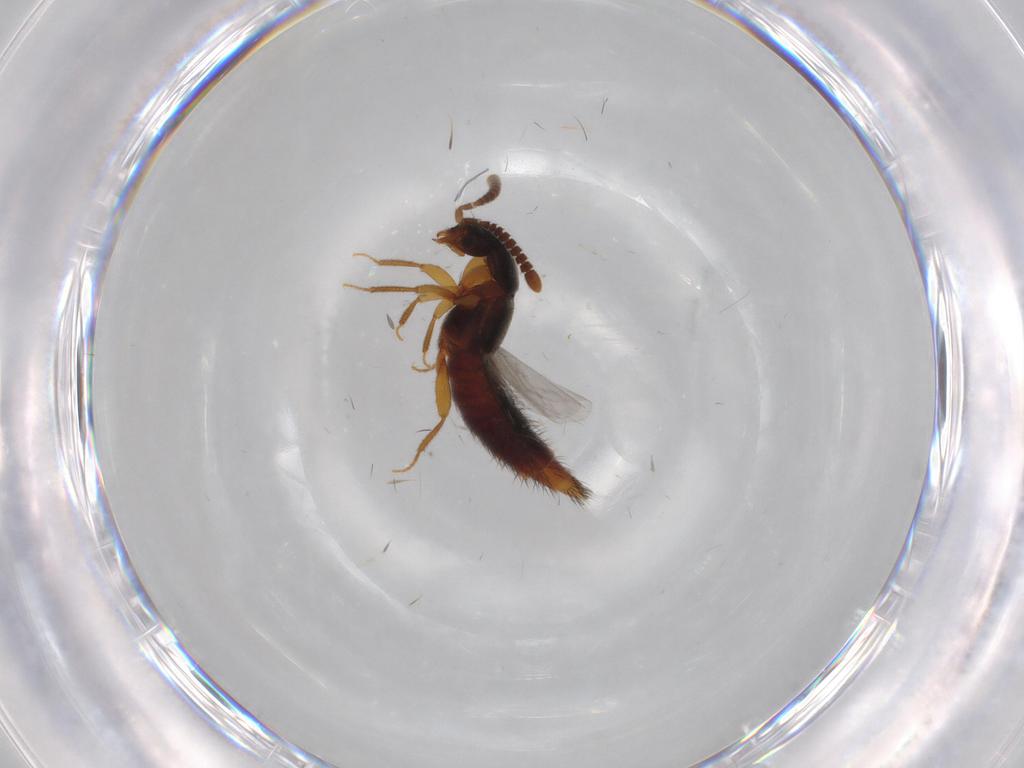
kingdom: Animalia
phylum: Arthropoda
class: Insecta
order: Coleoptera
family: Staphylinidae
